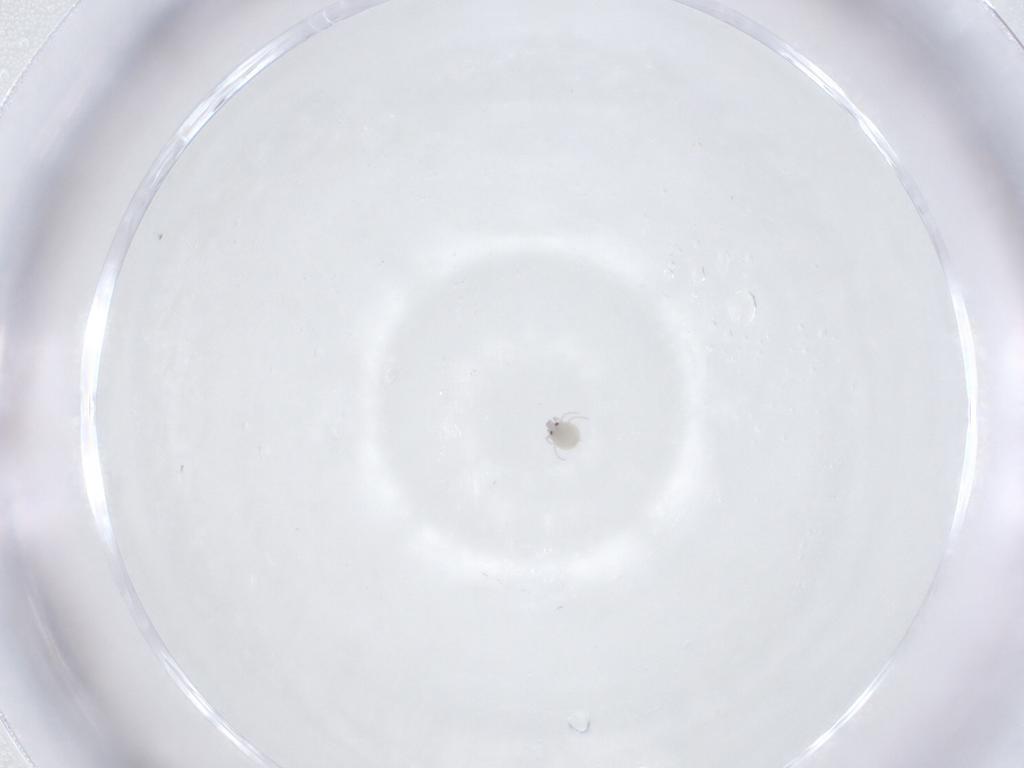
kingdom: Animalia
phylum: Arthropoda
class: Arachnida
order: Trombidiformes
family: Pionidae
